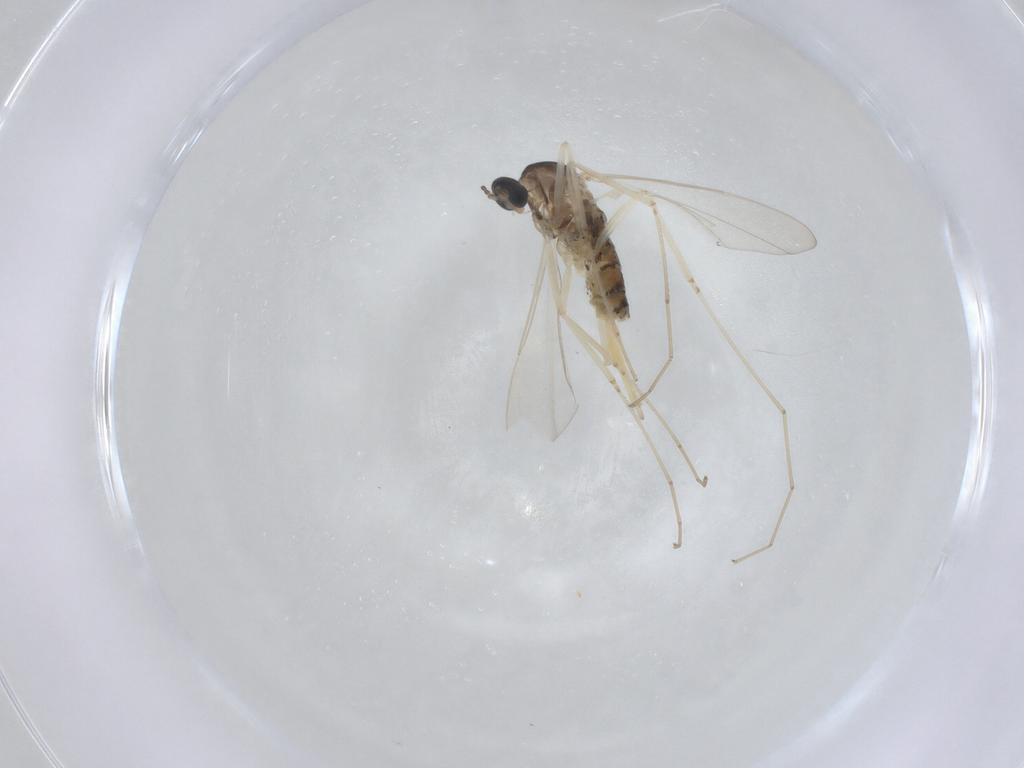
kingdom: Animalia
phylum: Arthropoda
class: Insecta
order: Diptera
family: Cecidomyiidae
